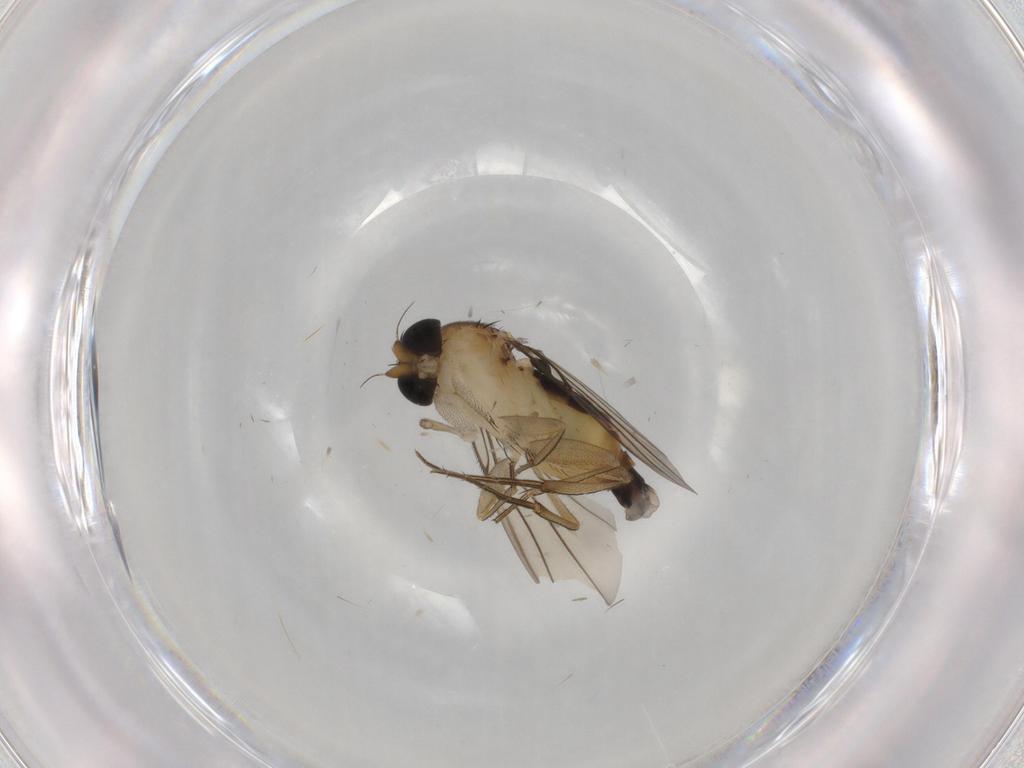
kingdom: Animalia
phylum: Arthropoda
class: Insecta
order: Diptera
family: Phoridae
